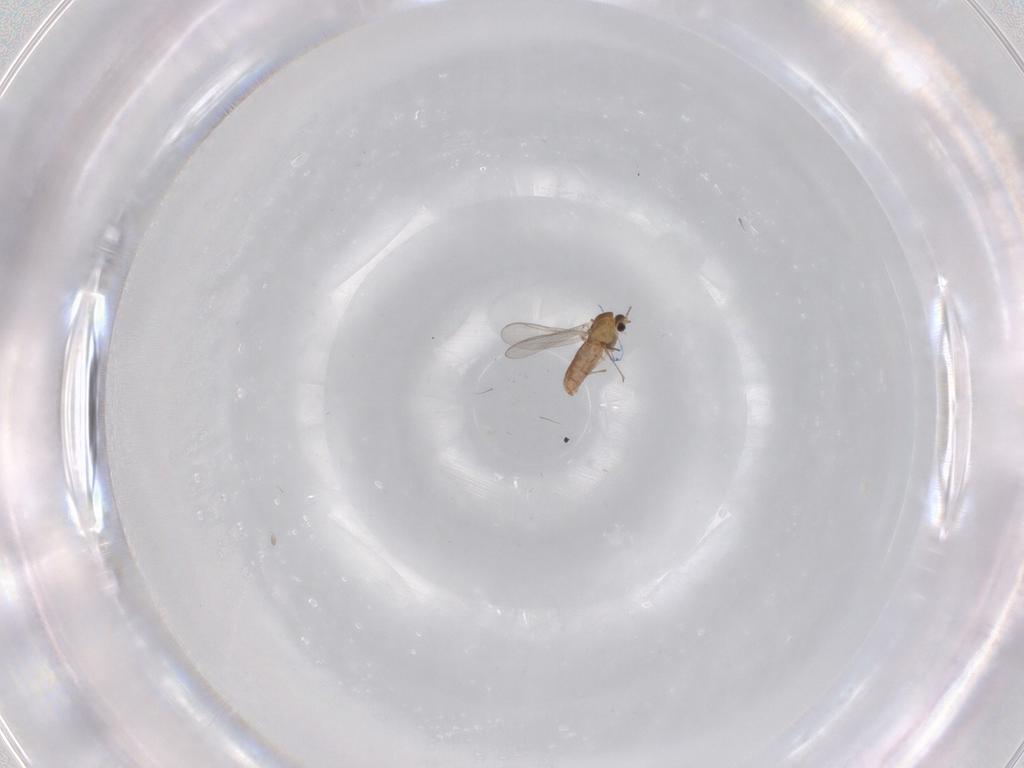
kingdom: Animalia
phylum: Arthropoda
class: Insecta
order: Diptera
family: Chironomidae
